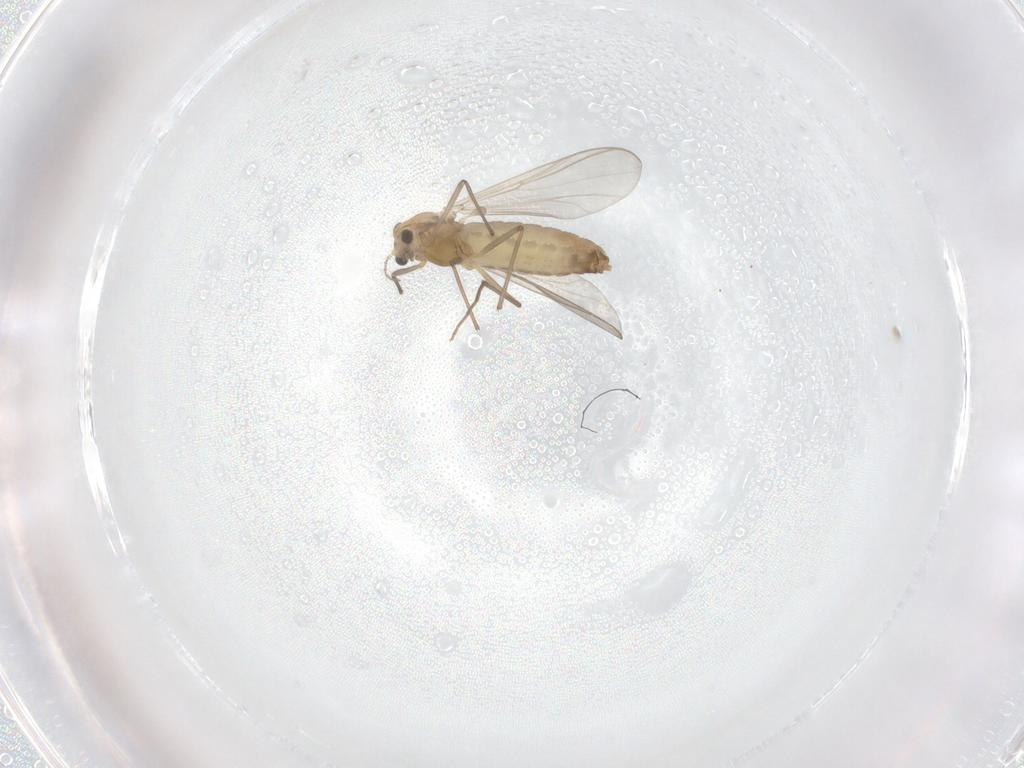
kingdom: Animalia
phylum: Arthropoda
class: Insecta
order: Diptera
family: Chironomidae
